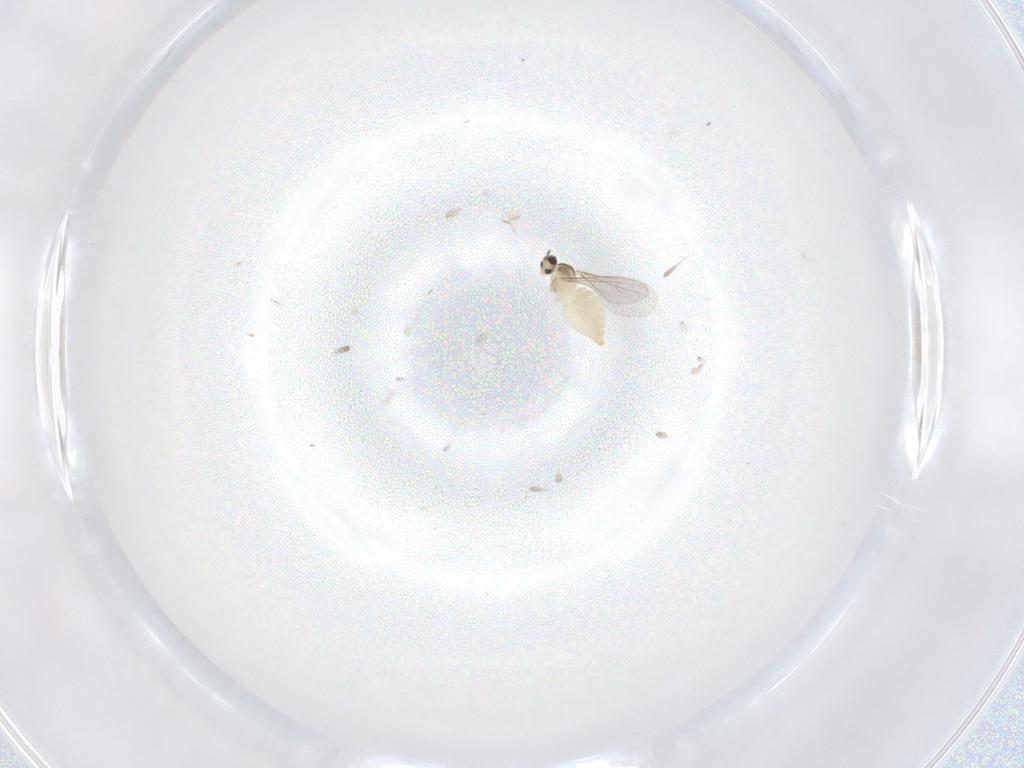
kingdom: Animalia
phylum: Arthropoda
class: Insecta
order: Diptera
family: Cecidomyiidae
